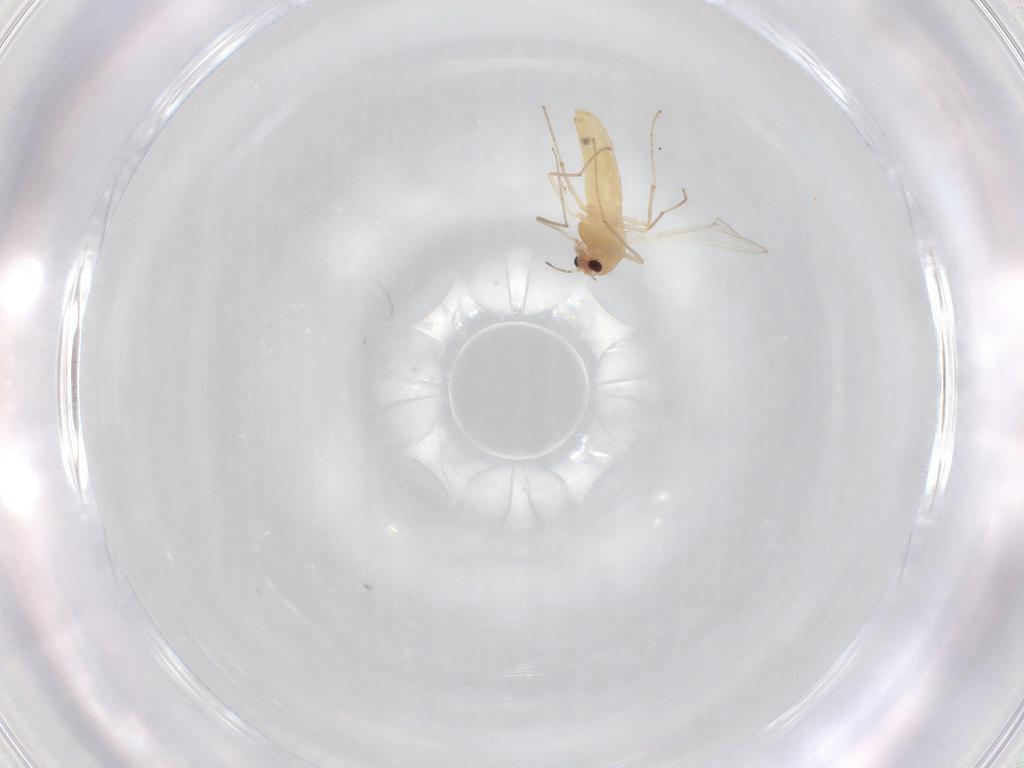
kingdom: Animalia
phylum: Arthropoda
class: Insecta
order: Diptera
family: Chironomidae
